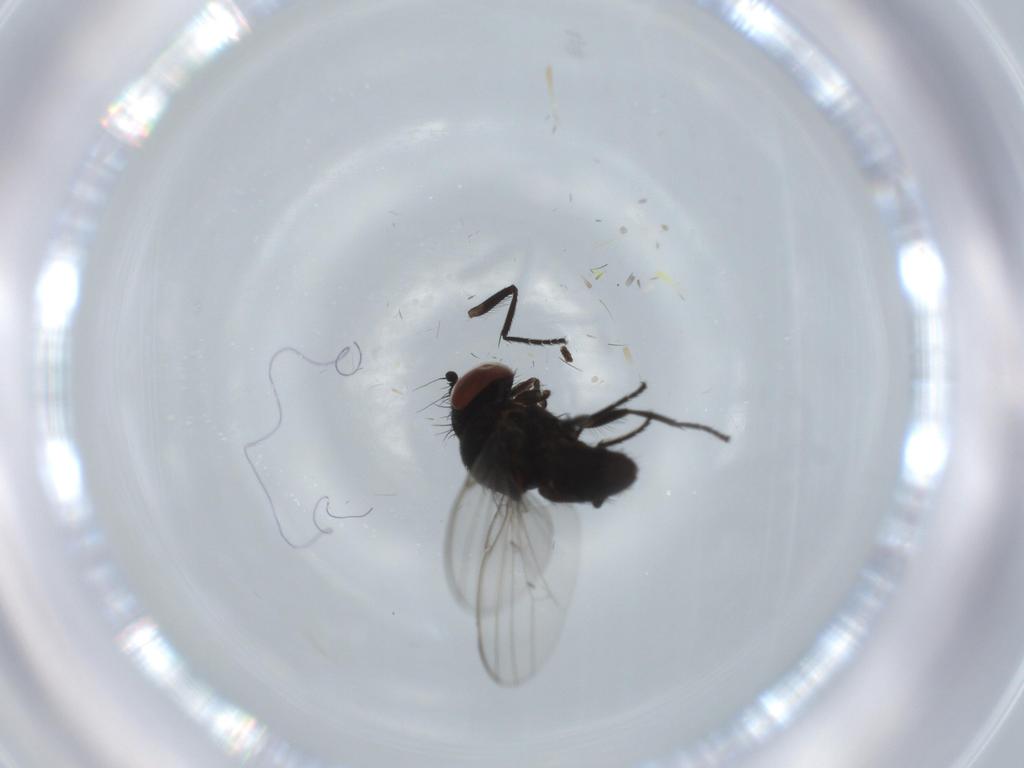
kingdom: Animalia
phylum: Arthropoda
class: Insecta
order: Diptera
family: Milichiidae
